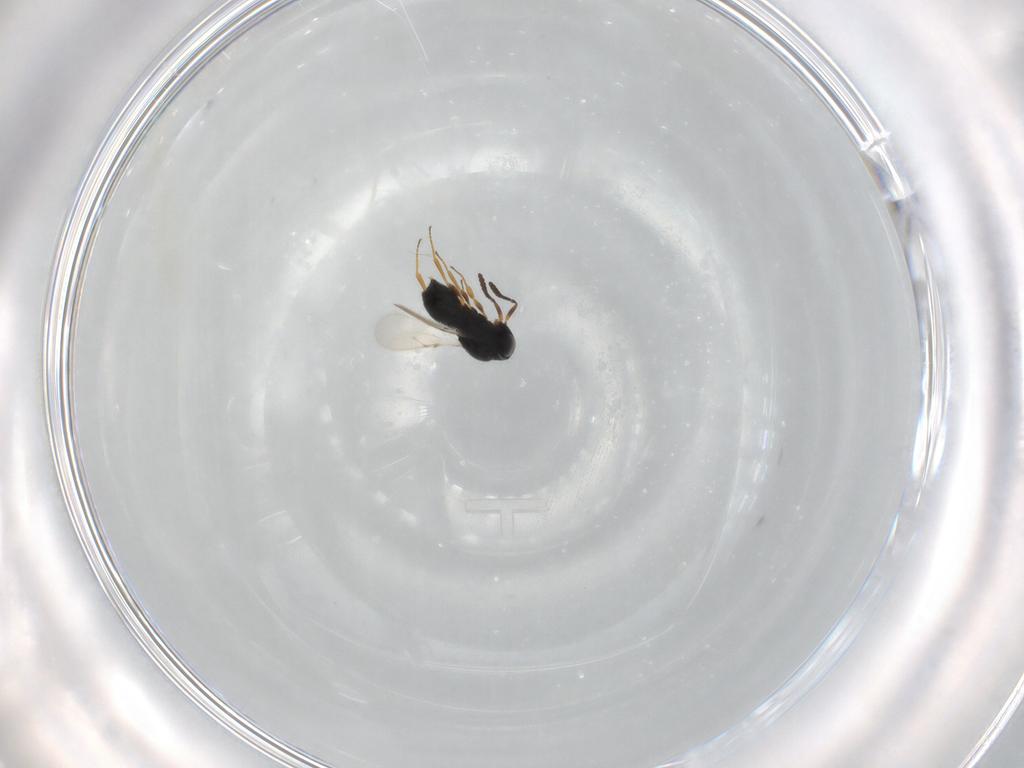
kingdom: Animalia
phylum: Arthropoda
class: Insecta
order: Hymenoptera
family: Scelionidae
